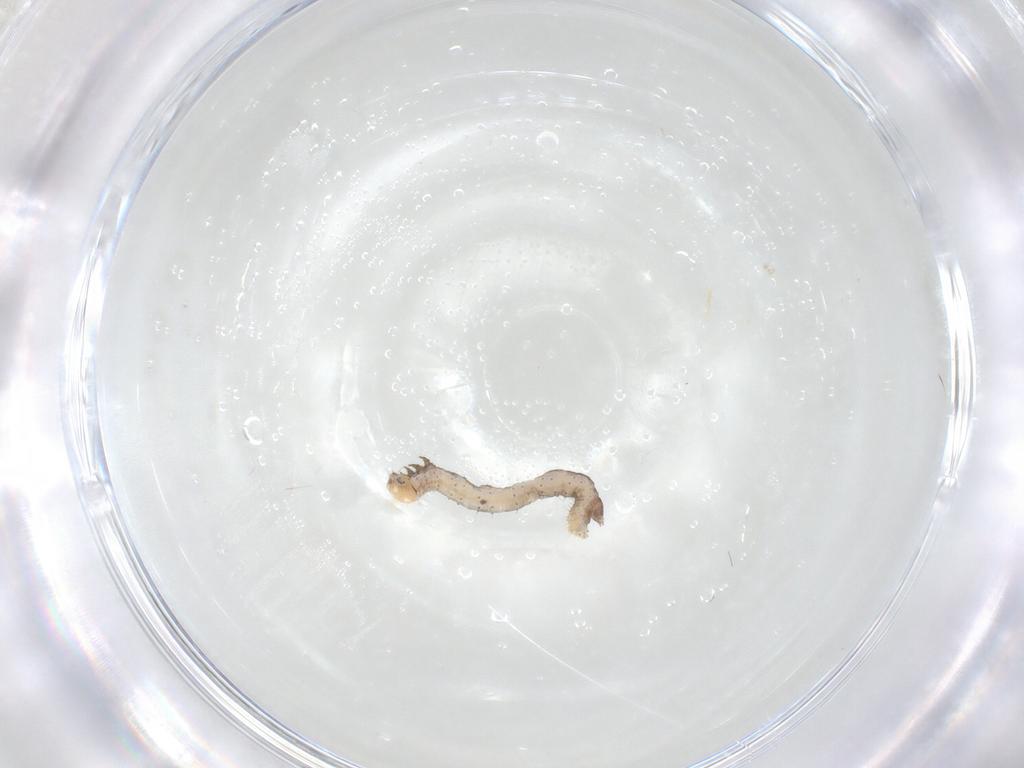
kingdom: Animalia
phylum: Arthropoda
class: Insecta
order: Lepidoptera
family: Geometridae
